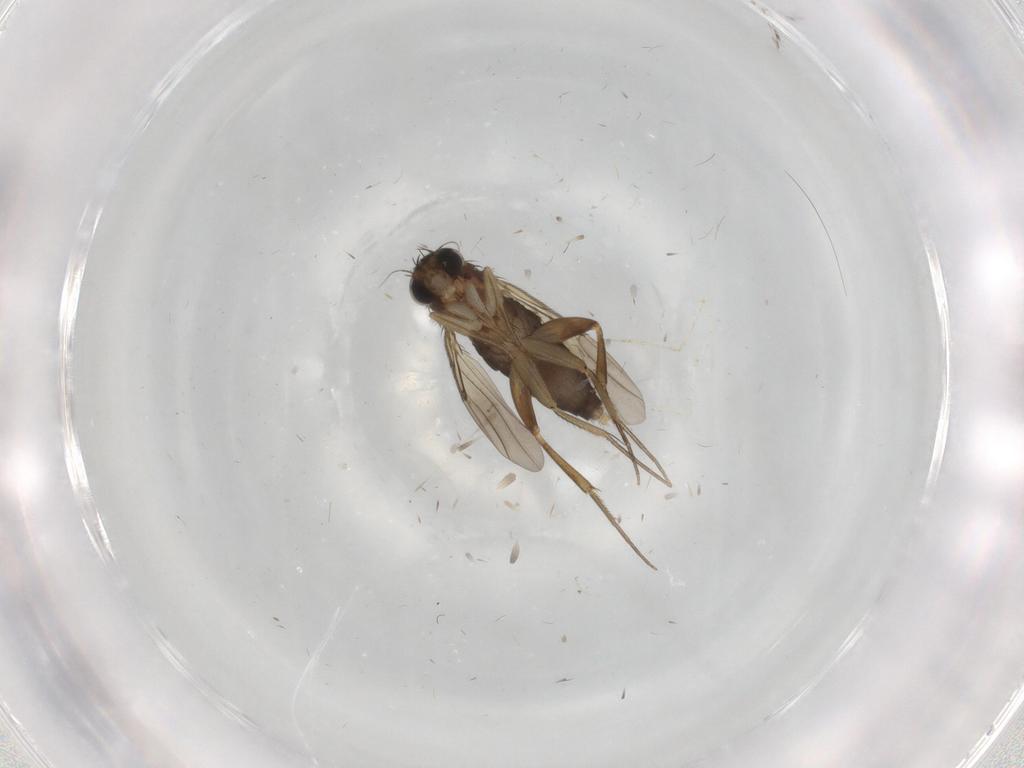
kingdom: Animalia
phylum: Arthropoda
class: Insecta
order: Diptera
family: Phoridae
